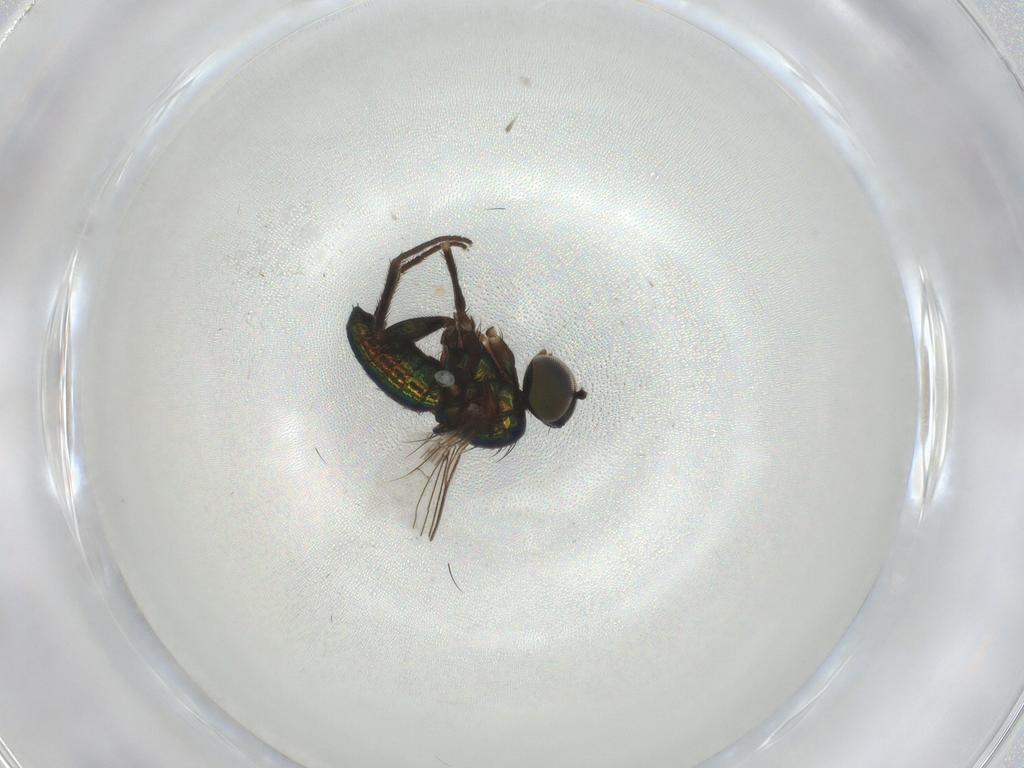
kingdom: Animalia
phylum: Arthropoda
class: Insecta
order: Diptera
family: Dolichopodidae
